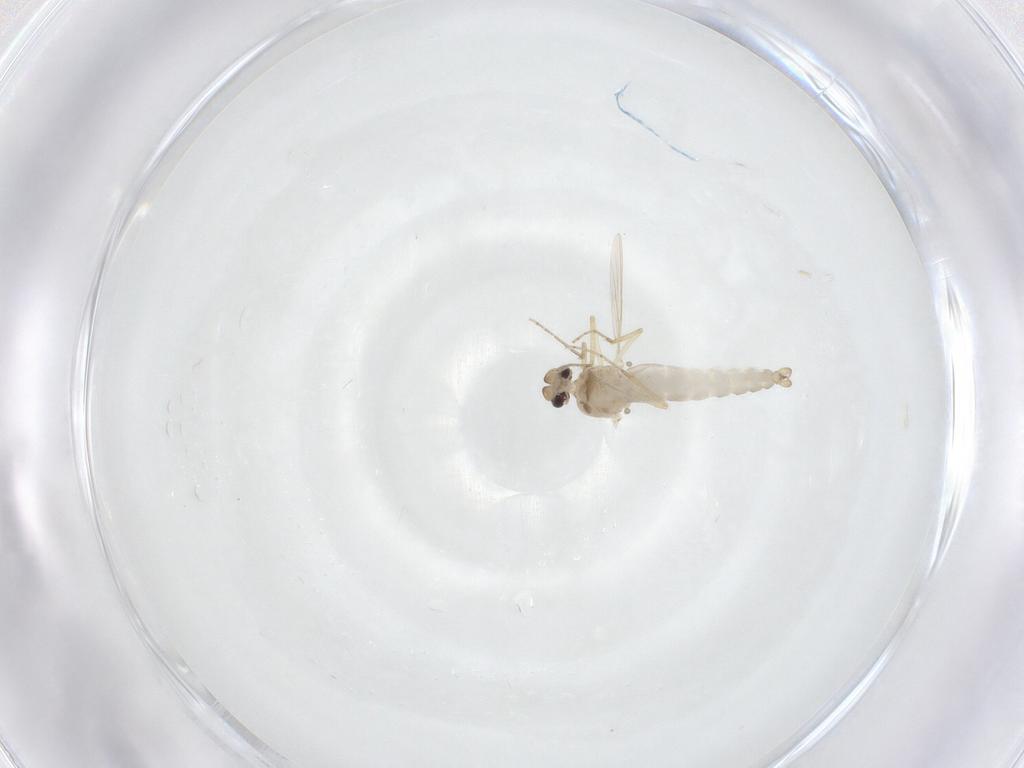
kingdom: Animalia
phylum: Arthropoda
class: Insecta
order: Diptera
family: Ceratopogonidae
